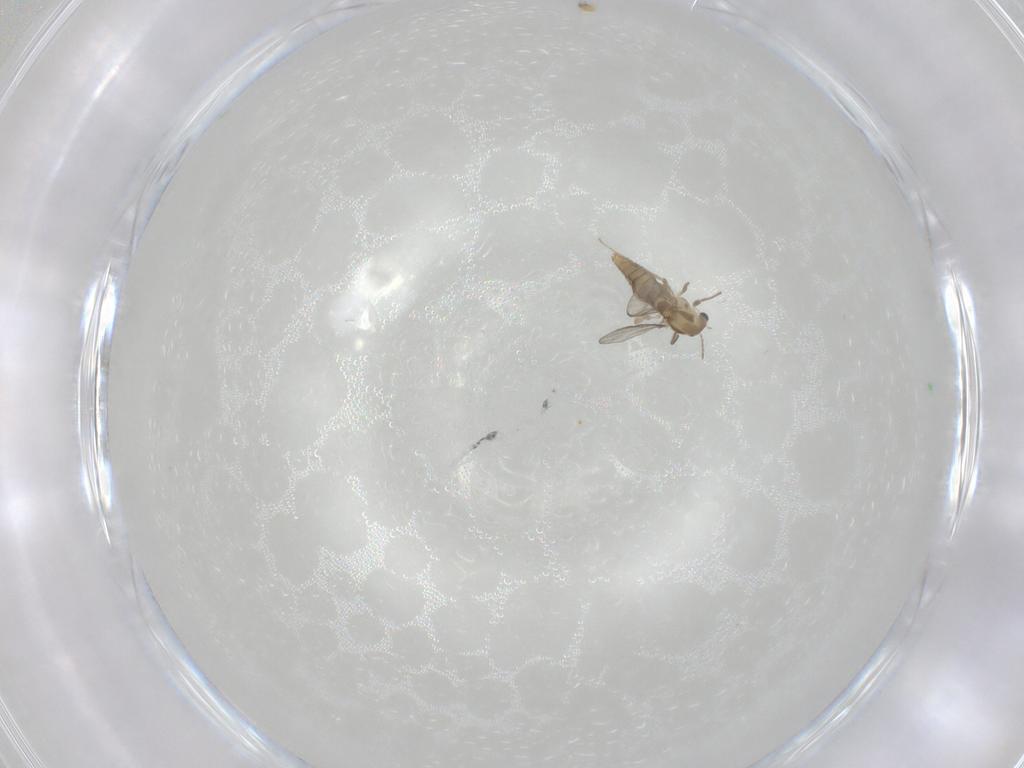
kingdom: Animalia
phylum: Arthropoda
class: Insecta
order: Diptera
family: Chironomidae
